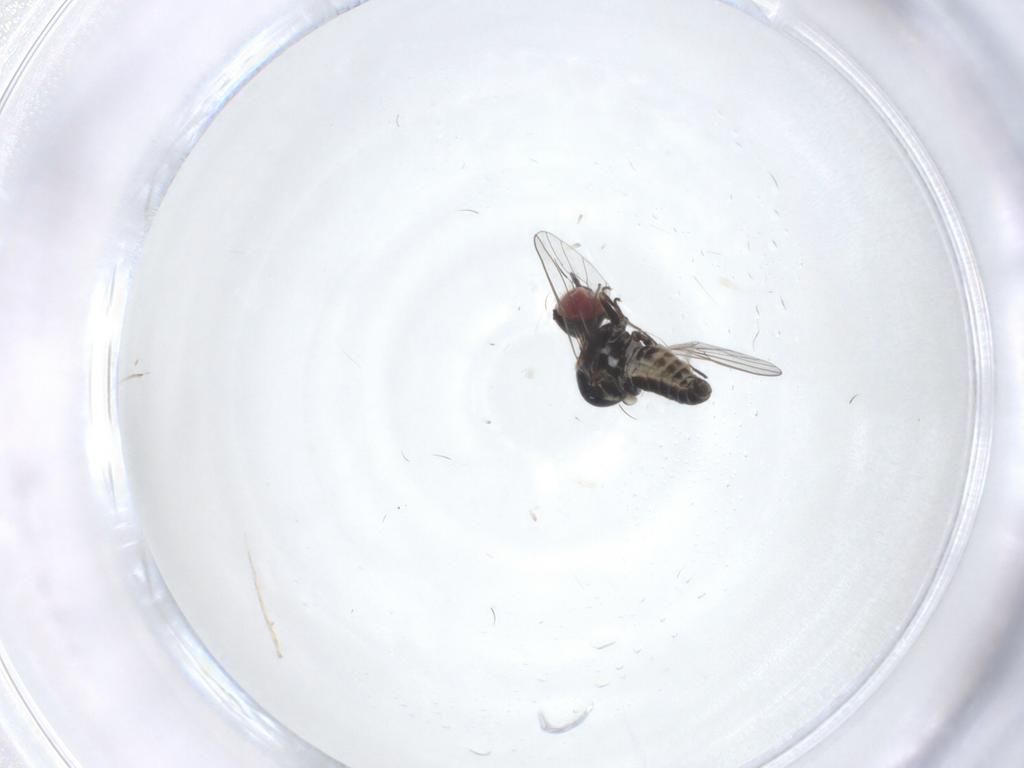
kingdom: Animalia
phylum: Arthropoda
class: Insecta
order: Diptera
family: Mythicomyiidae
